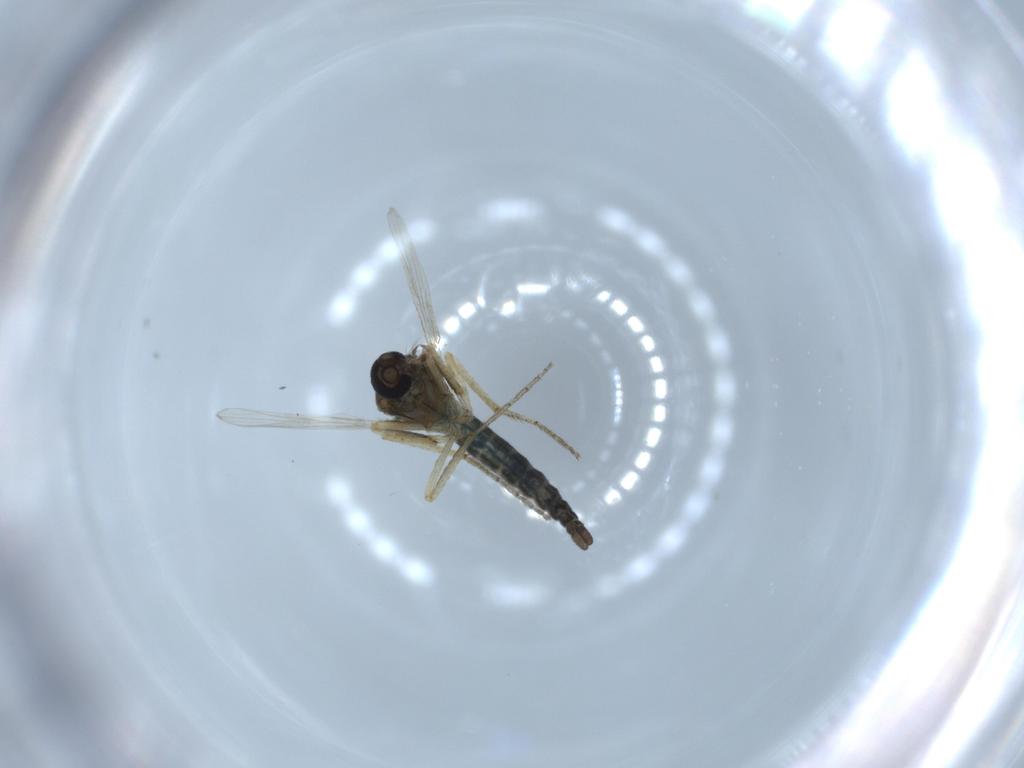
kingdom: Animalia
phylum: Arthropoda
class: Insecta
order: Diptera
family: Ceratopogonidae
